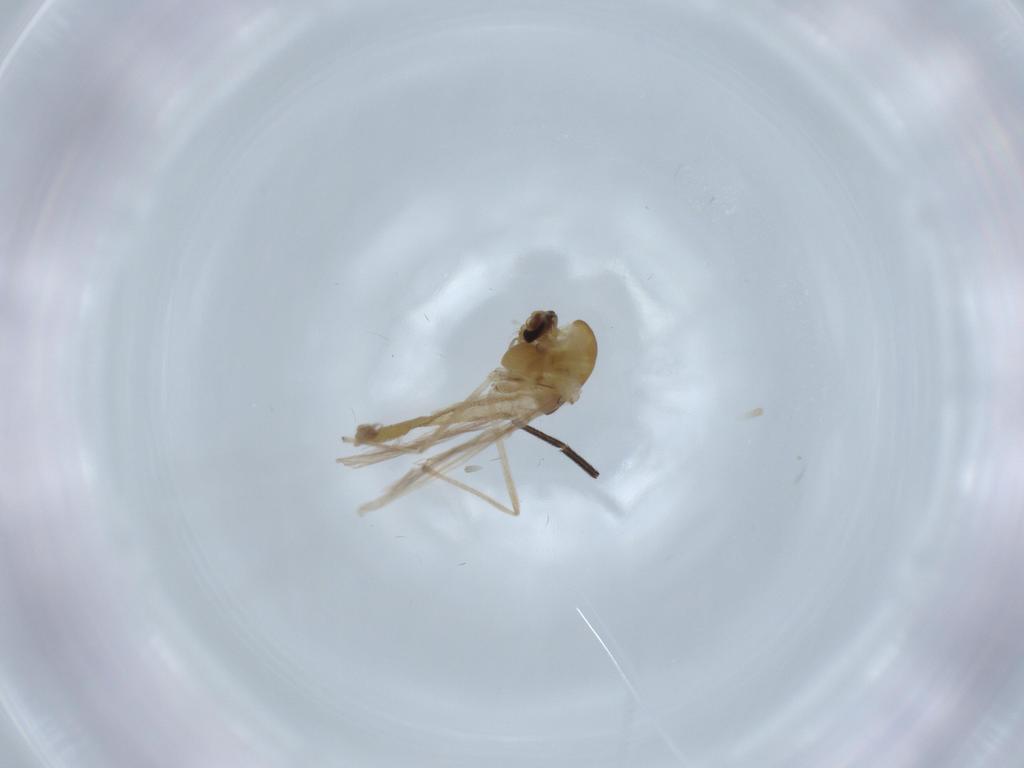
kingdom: Animalia
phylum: Arthropoda
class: Insecta
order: Diptera
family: Chironomidae
